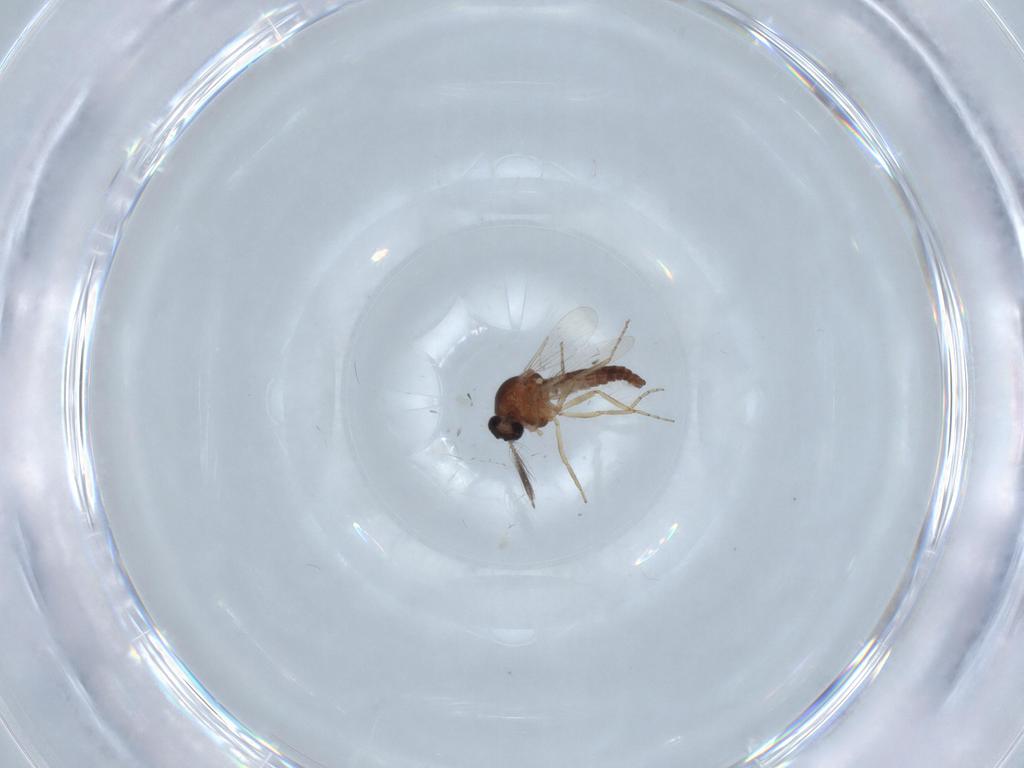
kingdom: Animalia
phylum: Arthropoda
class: Insecta
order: Diptera
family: Ceratopogonidae
